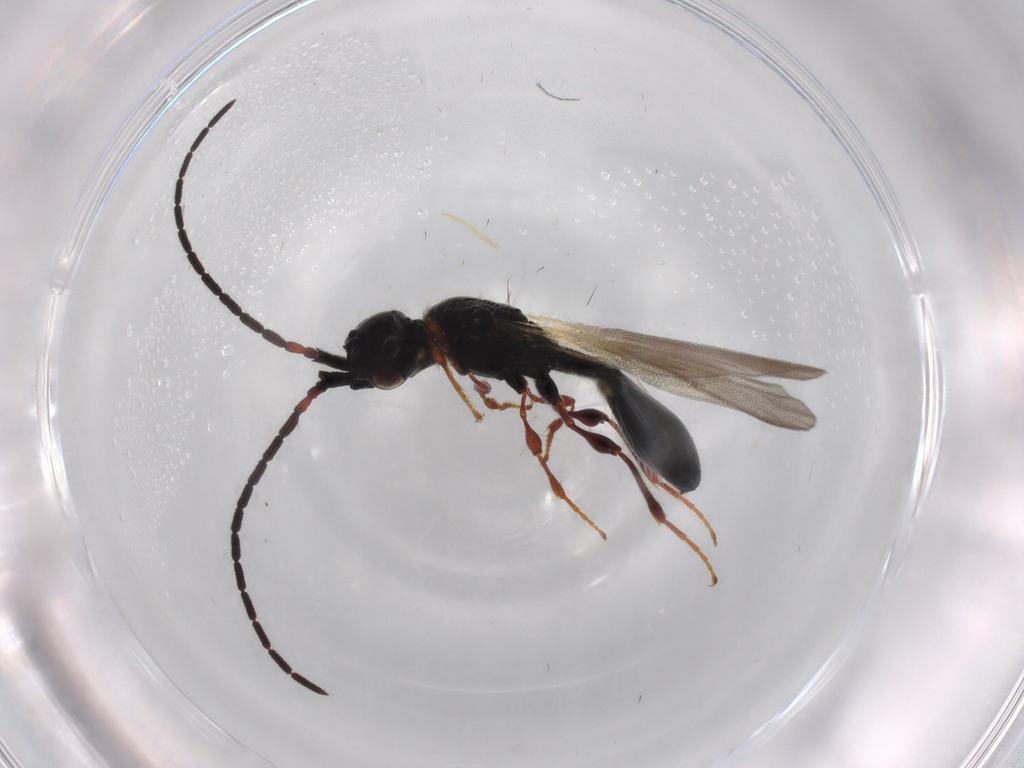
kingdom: Animalia
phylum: Arthropoda
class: Insecta
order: Hymenoptera
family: Diapriidae
